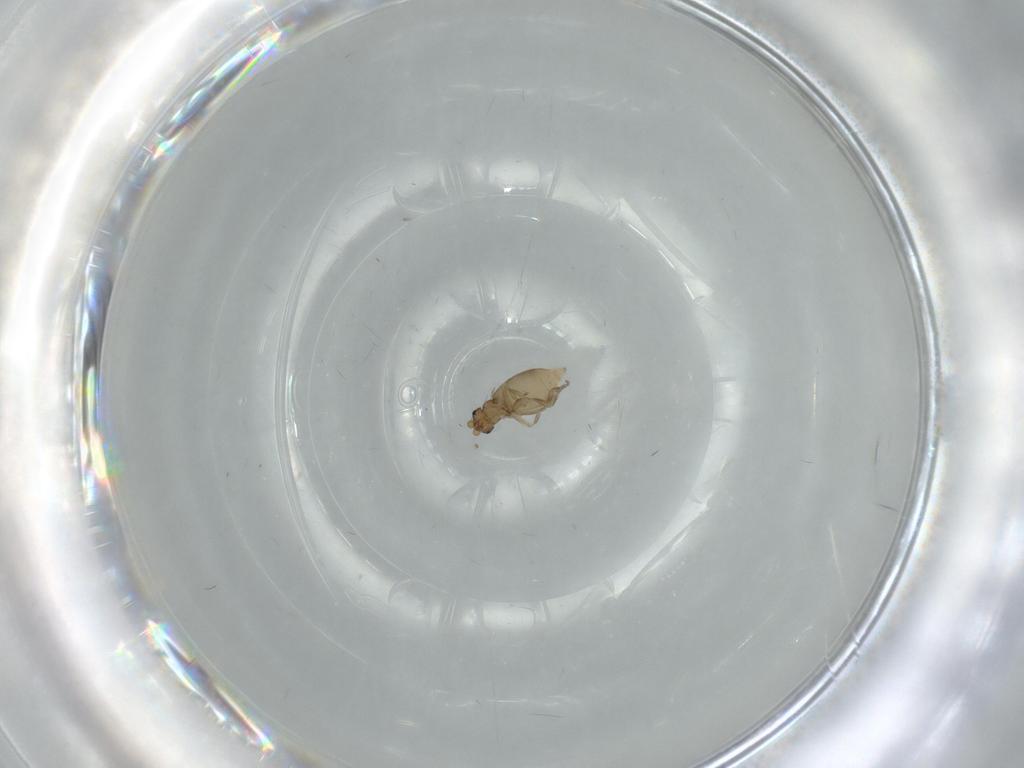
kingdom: Animalia
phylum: Arthropoda
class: Insecta
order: Diptera
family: Phoridae
